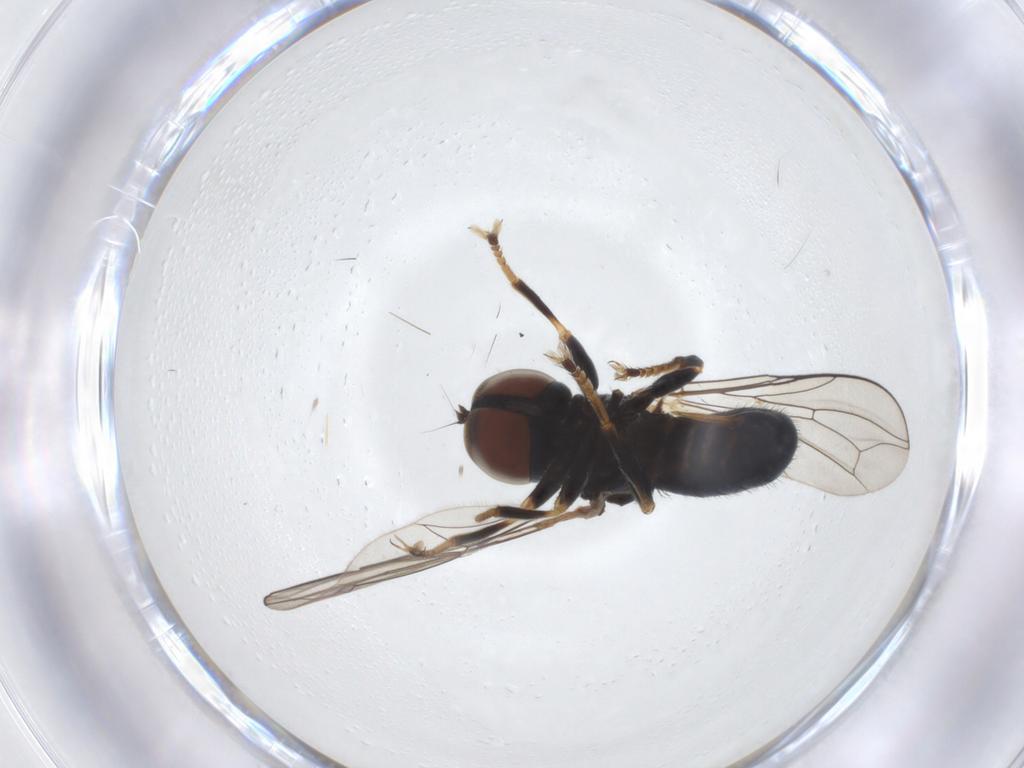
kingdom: Animalia
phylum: Arthropoda
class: Insecta
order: Diptera
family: Pipunculidae
